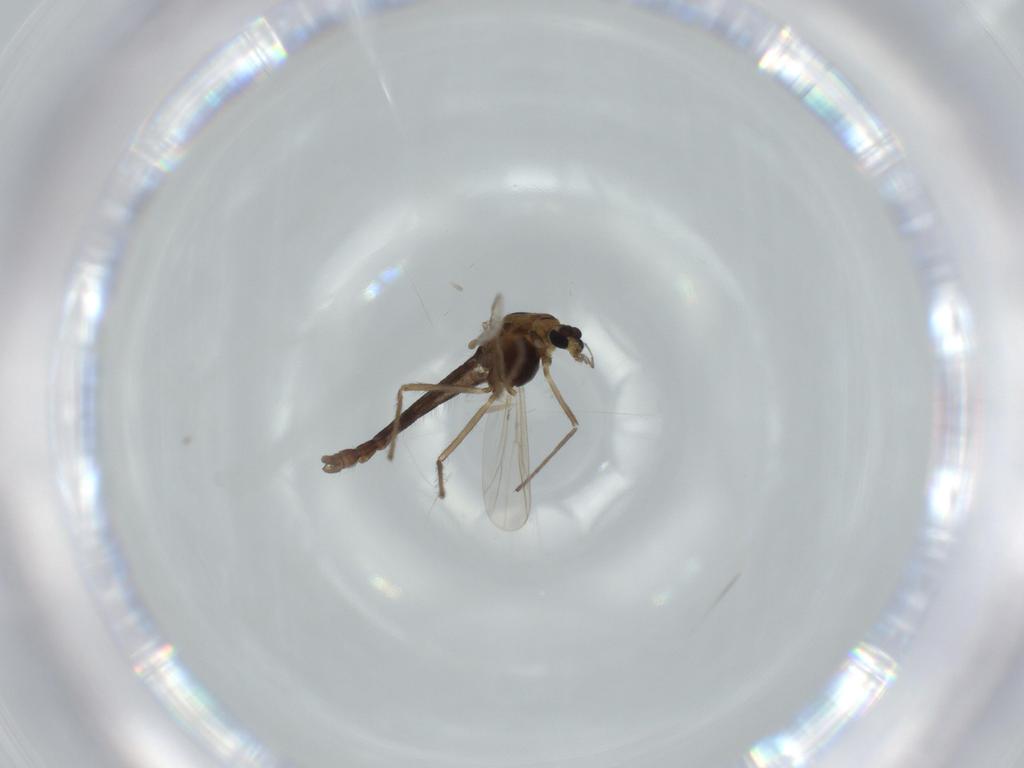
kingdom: Animalia
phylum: Arthropoda
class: Insecta
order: Diptera
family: Chironomidae
